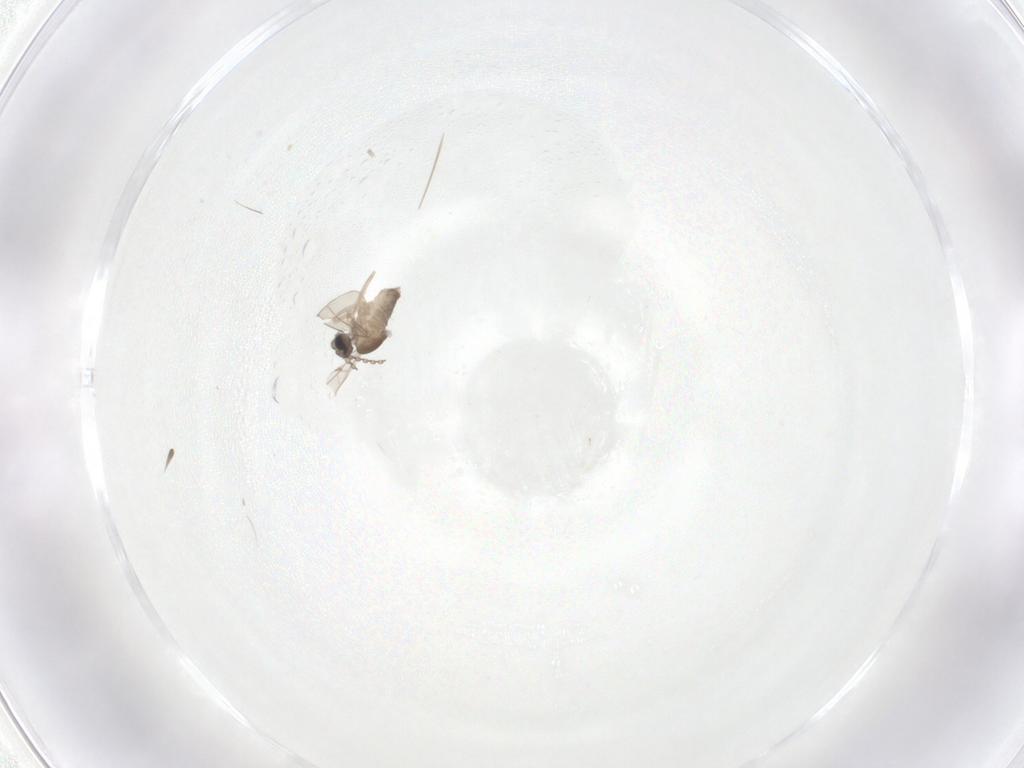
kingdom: Animalia
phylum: Arthropoda
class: Insecta
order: Diptera
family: Cecidomyiidae
